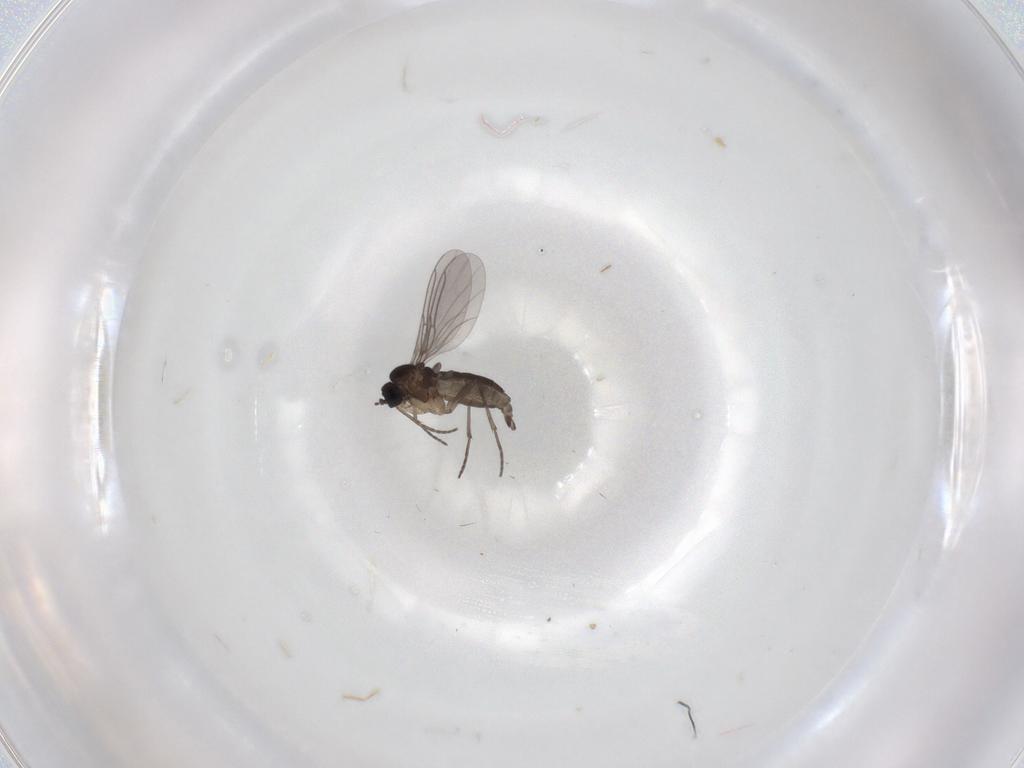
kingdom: Animalia
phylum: Arthropoda
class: Insecta
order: Diptera
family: Sciaridae
